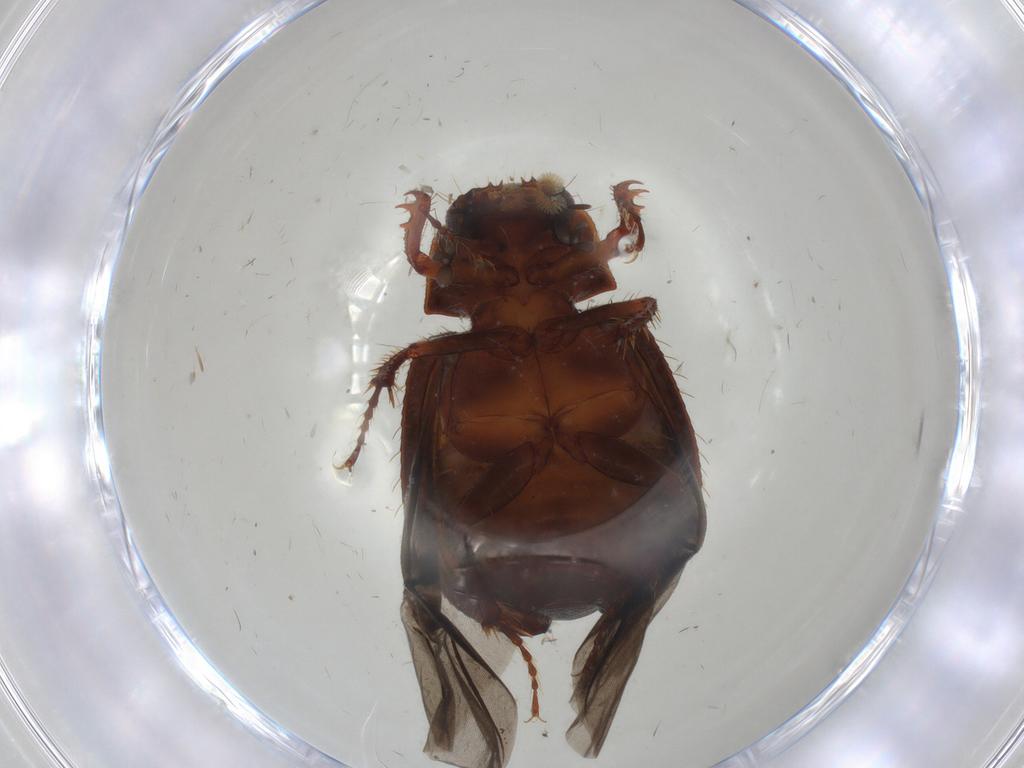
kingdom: Animalia
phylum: Arthropoda
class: Insecta
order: Coleoptera
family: Hybosoridae
